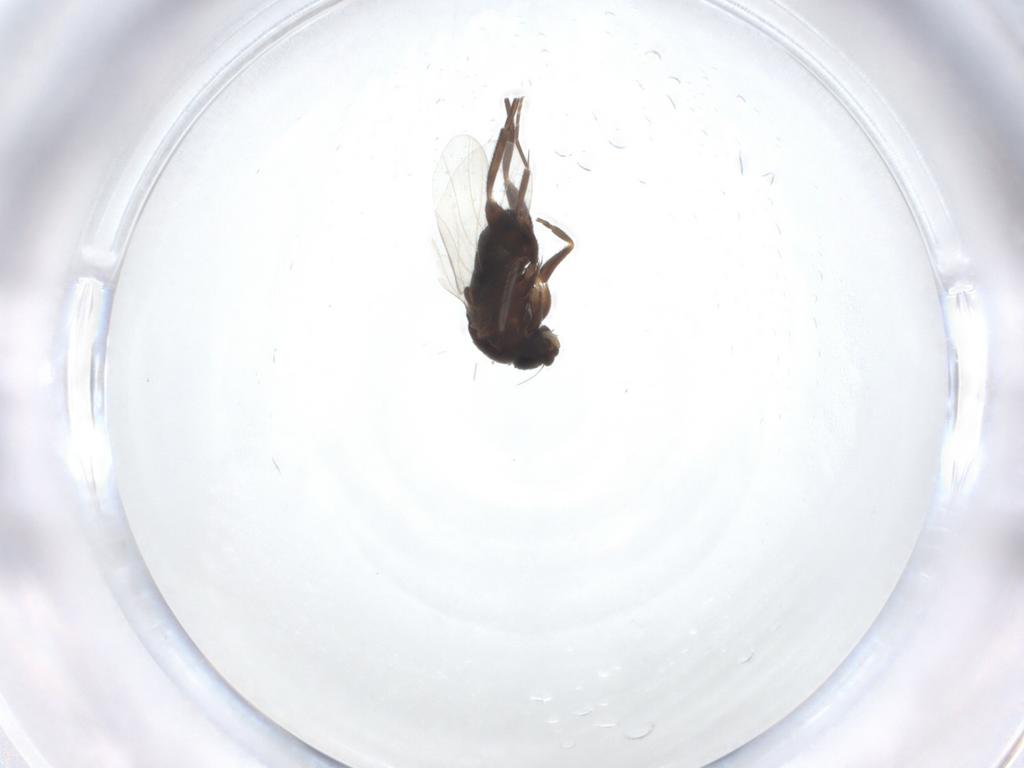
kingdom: Animalia
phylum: Arthropoda
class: Insecta
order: Diptera
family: Phoridae
